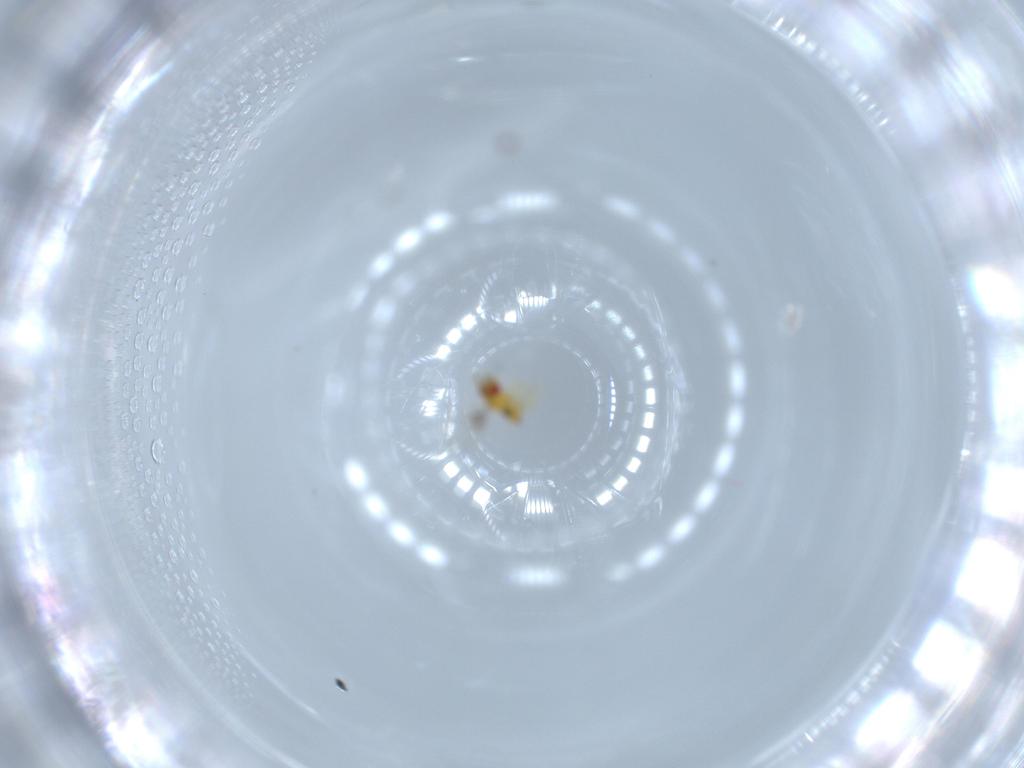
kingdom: Animalia
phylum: Arthropoda
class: Insecta
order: Hymenoptera
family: Trichogrammatidae
